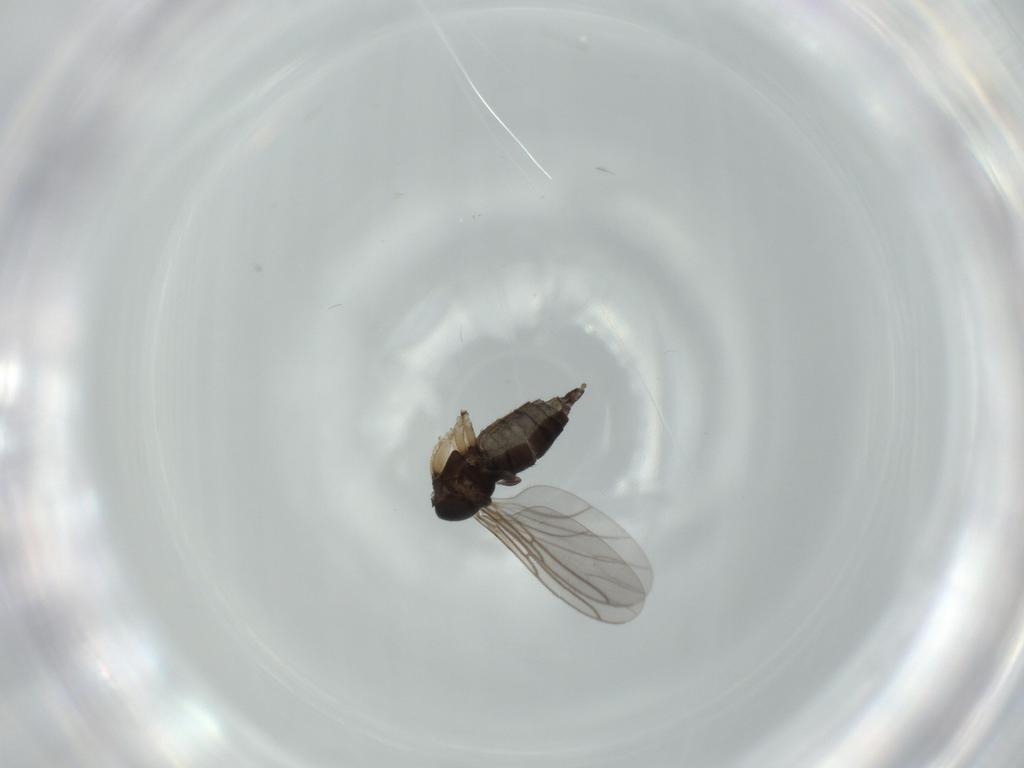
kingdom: Animalia
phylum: Arthropoda
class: Insecta
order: Diptera
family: Sciaridae
